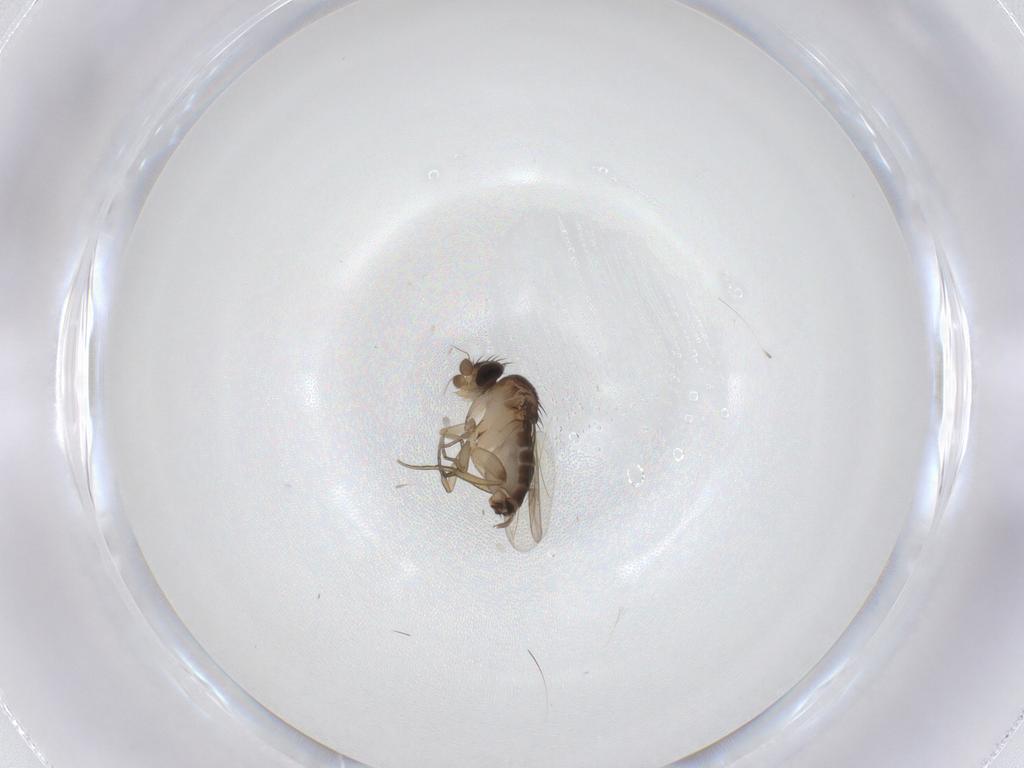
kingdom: Animalia
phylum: Arthropoda
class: Insecta
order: Diptera
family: Phoridae
